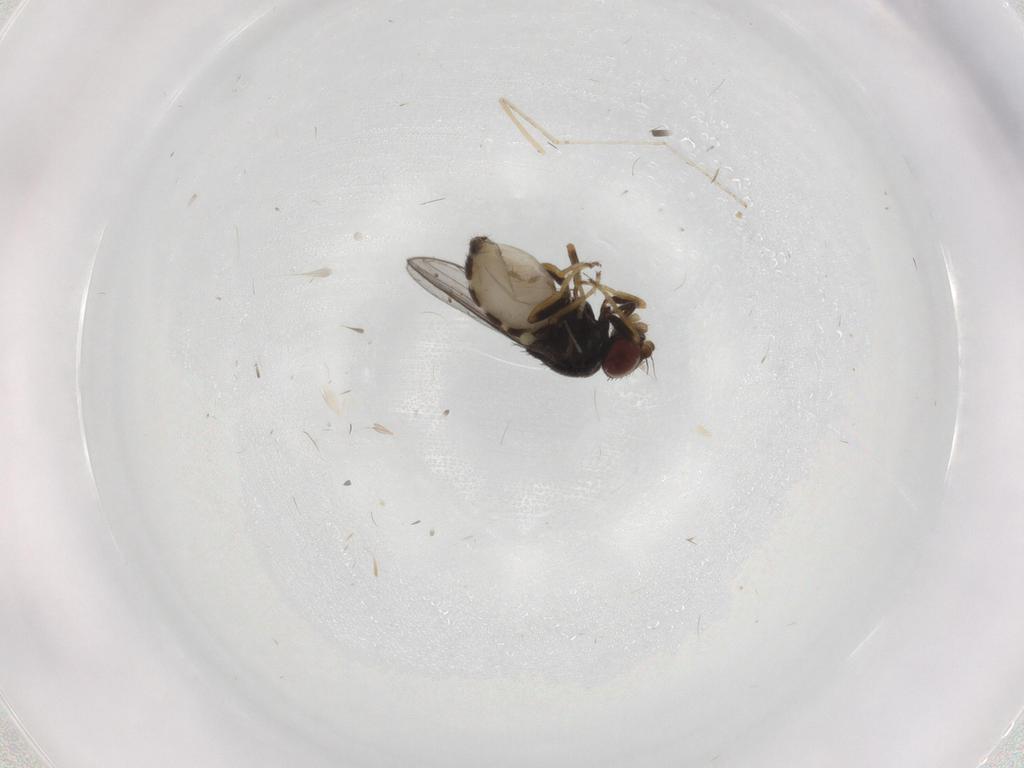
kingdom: Animalia
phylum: Arthropoda
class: Insecta
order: Diptera
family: Chloropidae
